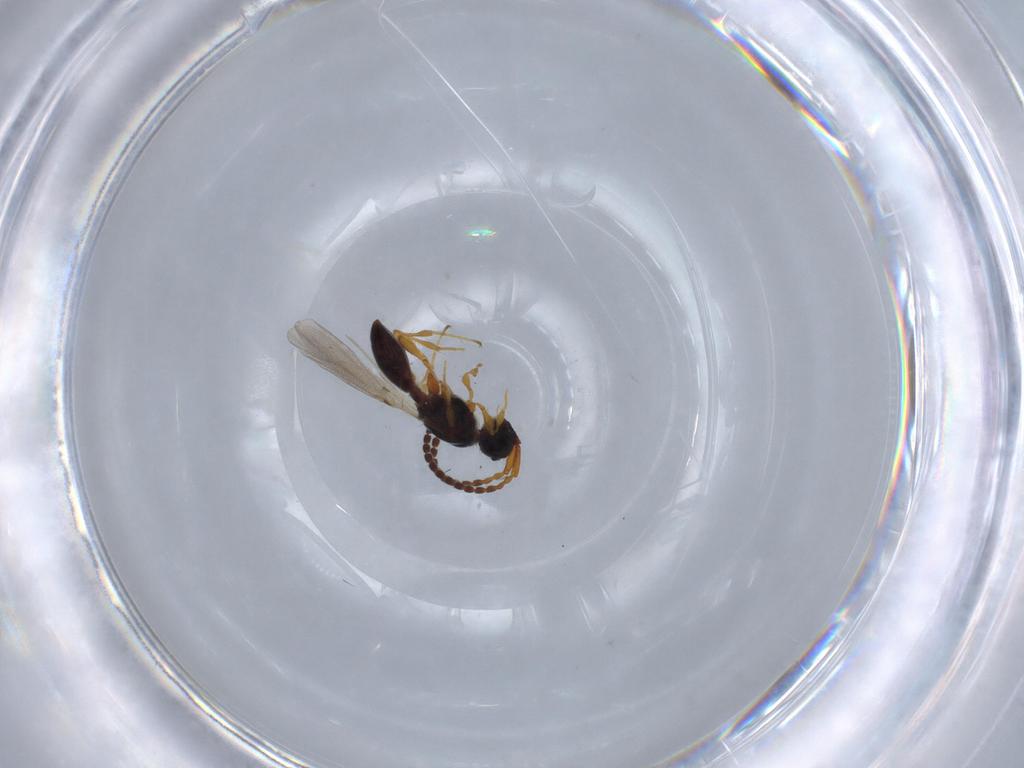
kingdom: Animalia
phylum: Arthropoda
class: Insecta
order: Hymenoptera
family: Diapriidae
